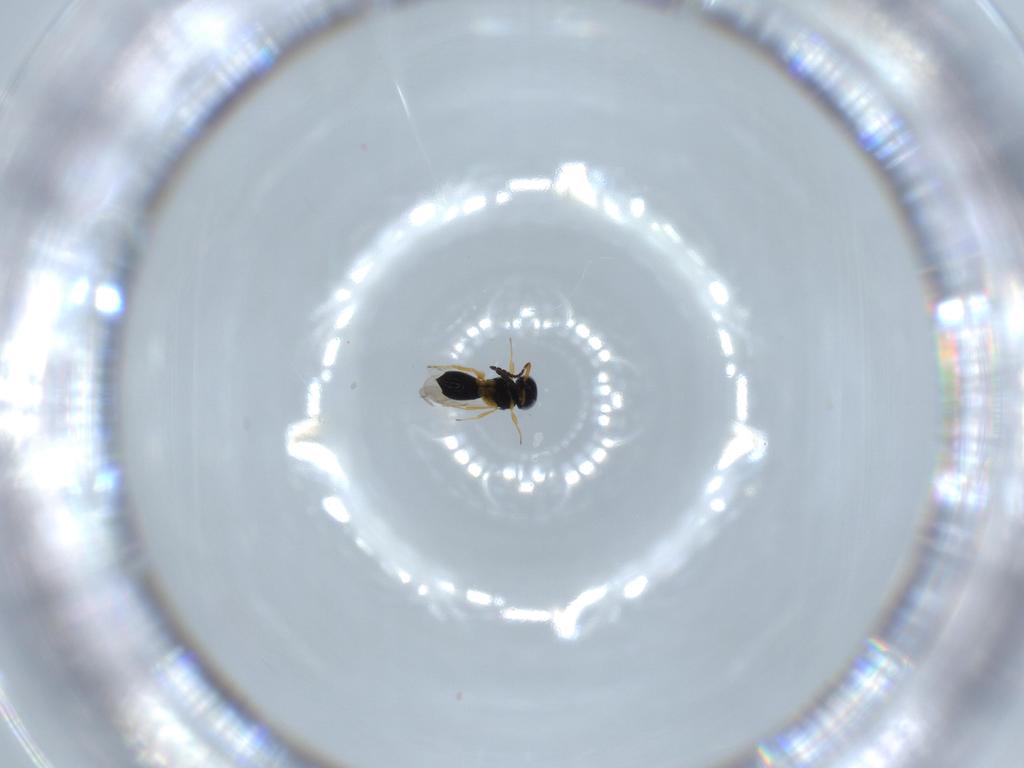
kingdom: Animalia
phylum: Arthropoda
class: Insecta
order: Hymenoptera
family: Scelionidae
